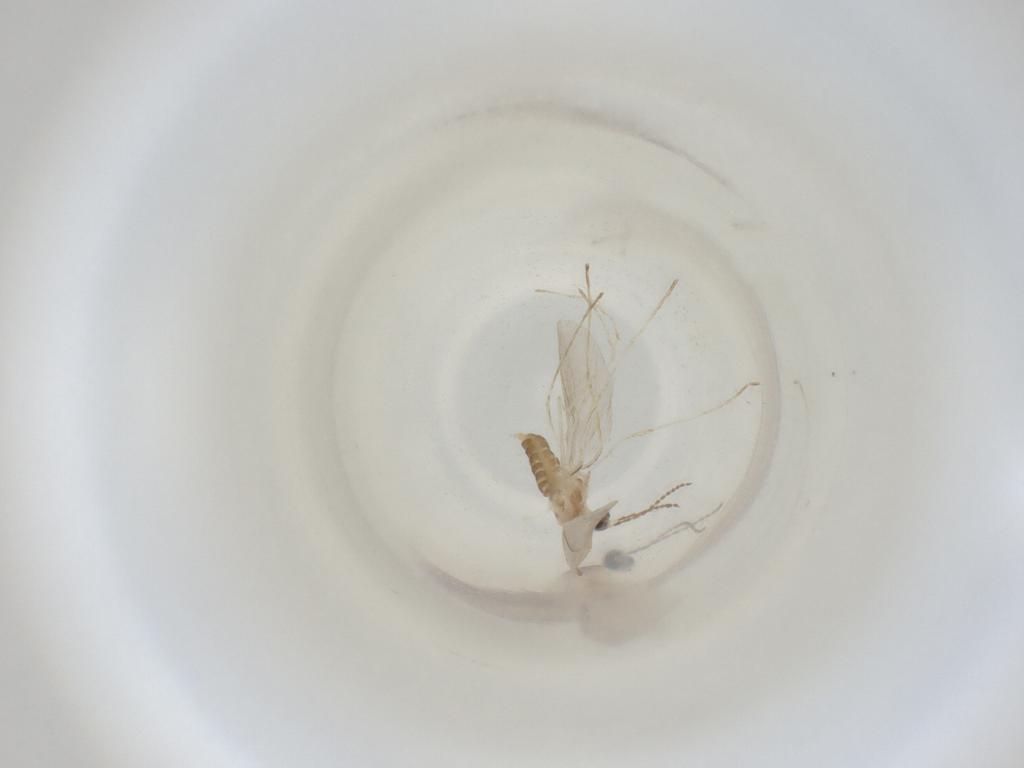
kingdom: Animalia
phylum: Arthropoda
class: Insecta
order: Diptera
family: Cecidomyiidae
